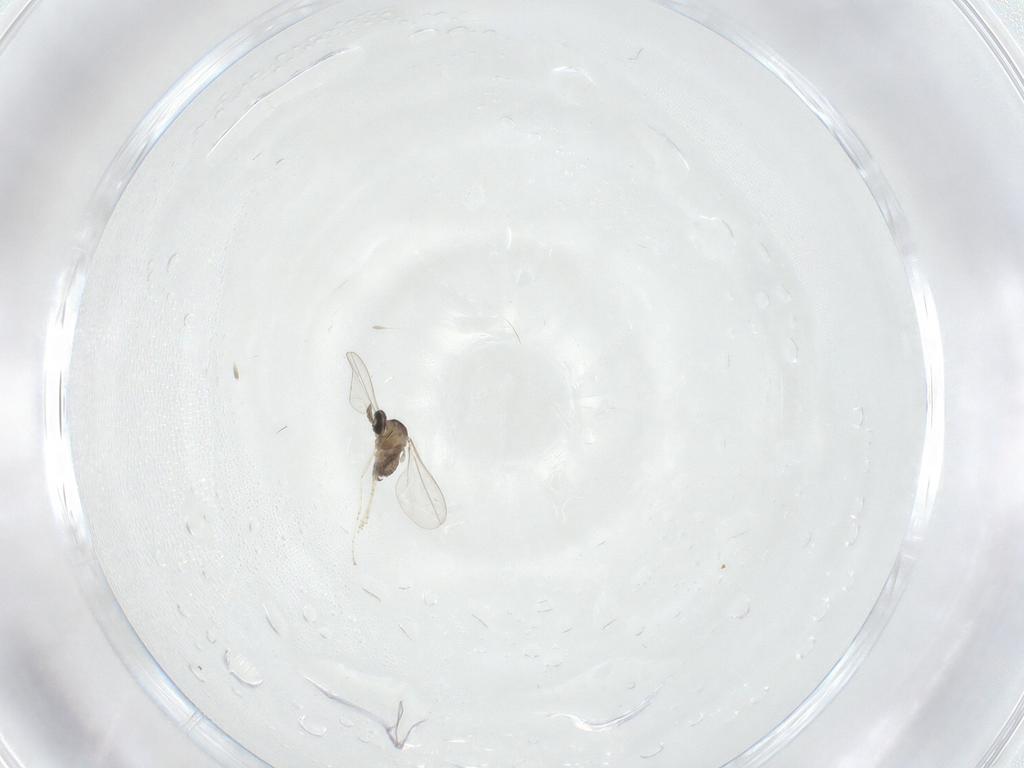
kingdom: Animalia
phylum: Arthropoda
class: Insecta
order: Diptera
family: Cecidomyiidae
